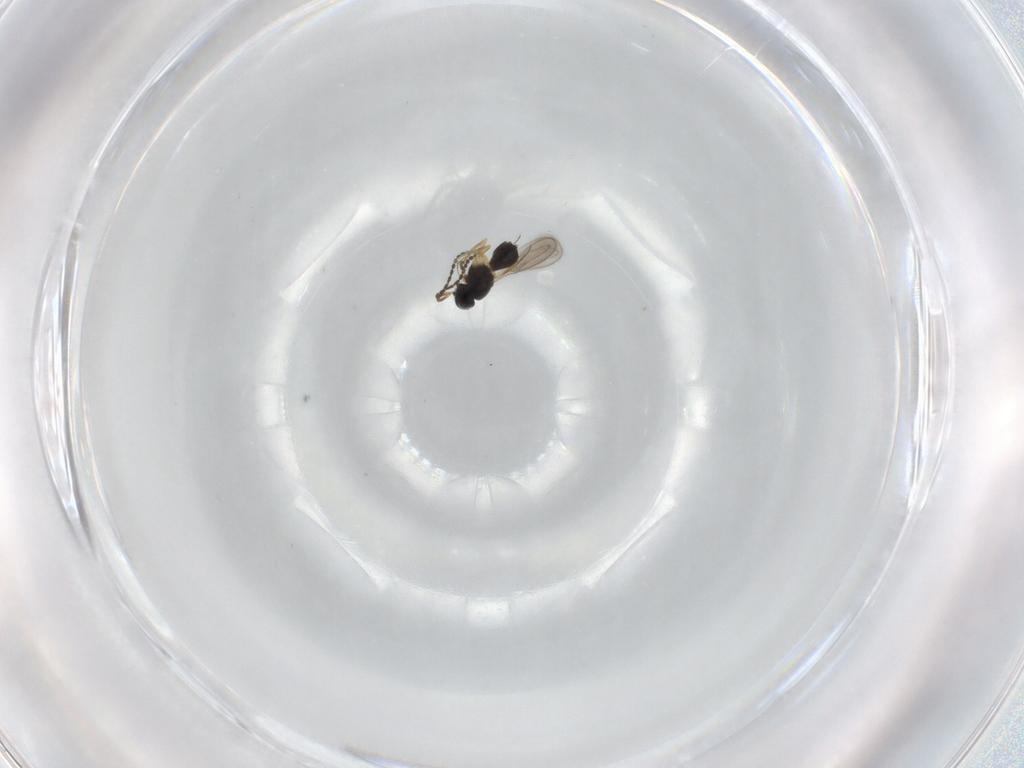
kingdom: Animalia
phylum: Arthropoda
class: Insecta
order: Hymenoptera
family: Scelionidae
